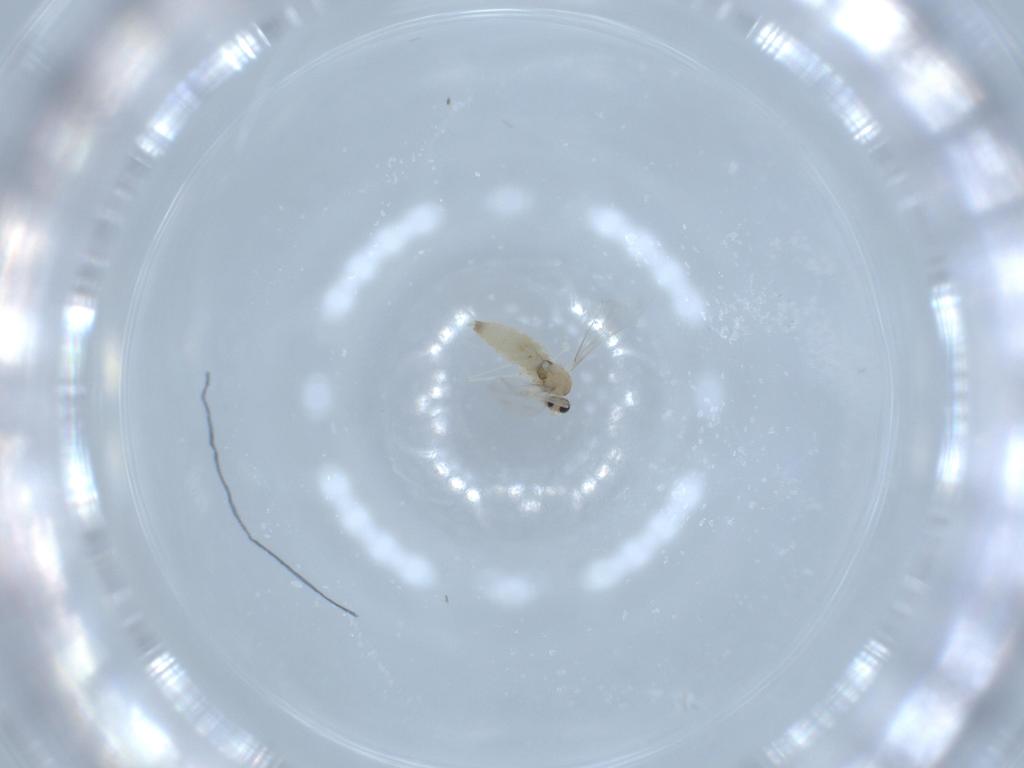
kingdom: Animalia
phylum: Arthropoda
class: Insecta
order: Diptera
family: Cecidomyiidae
